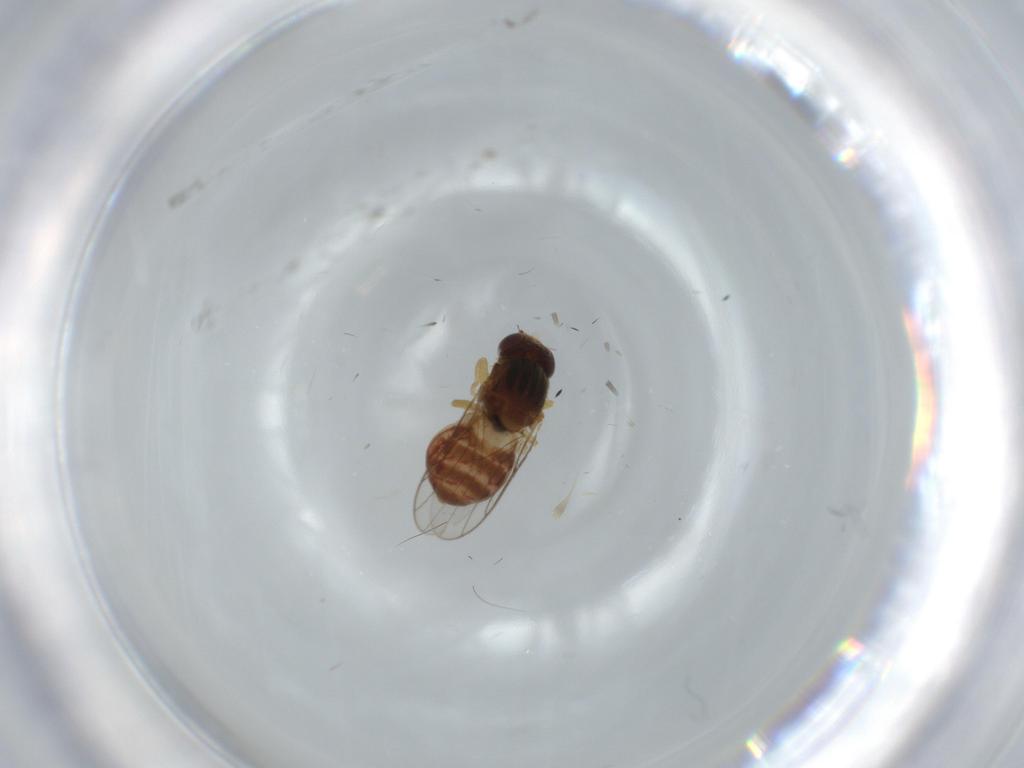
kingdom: Animalia
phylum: Arthropoda
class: Insecta
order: Diptera
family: Chloropidae
